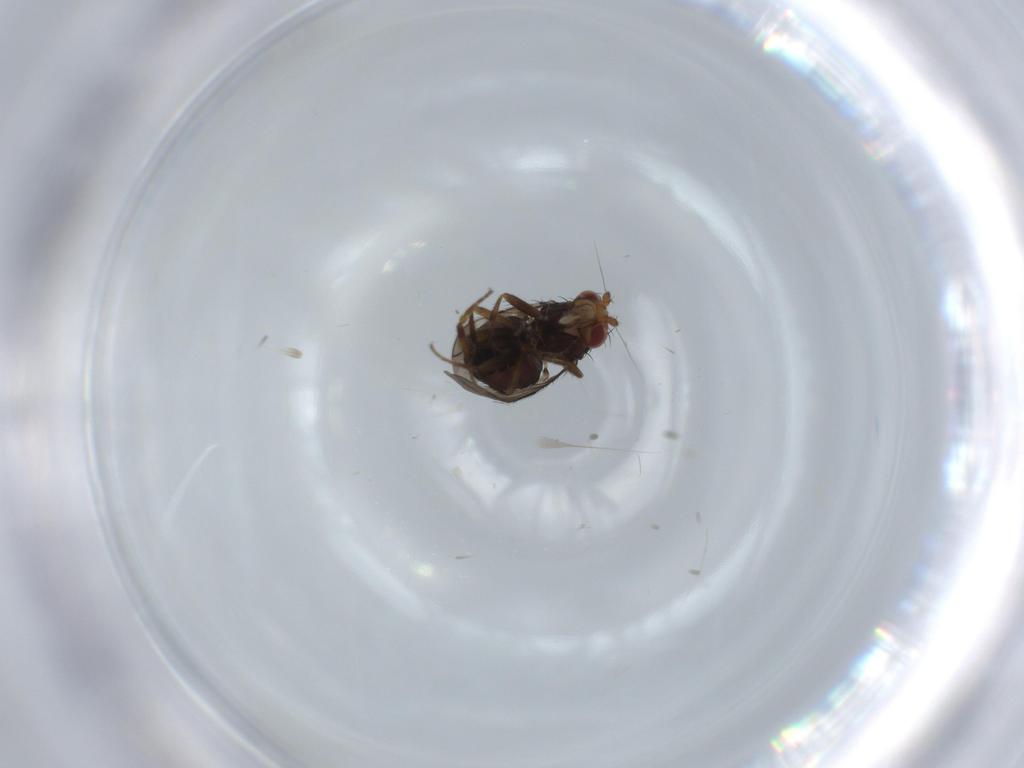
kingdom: Animalia
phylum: Arthropoda
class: Insecta
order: Diptera
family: Sphaeroceridae
